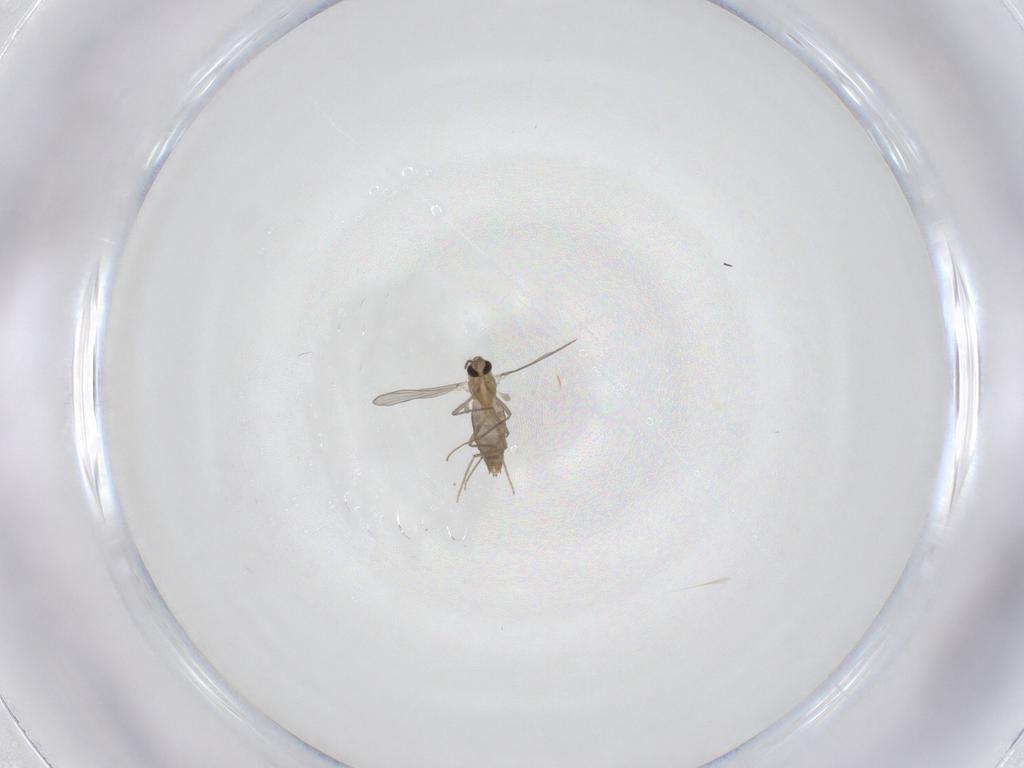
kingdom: Animalia
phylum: Arthropoda
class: Insecta
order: Diptera
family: Chironomidae
